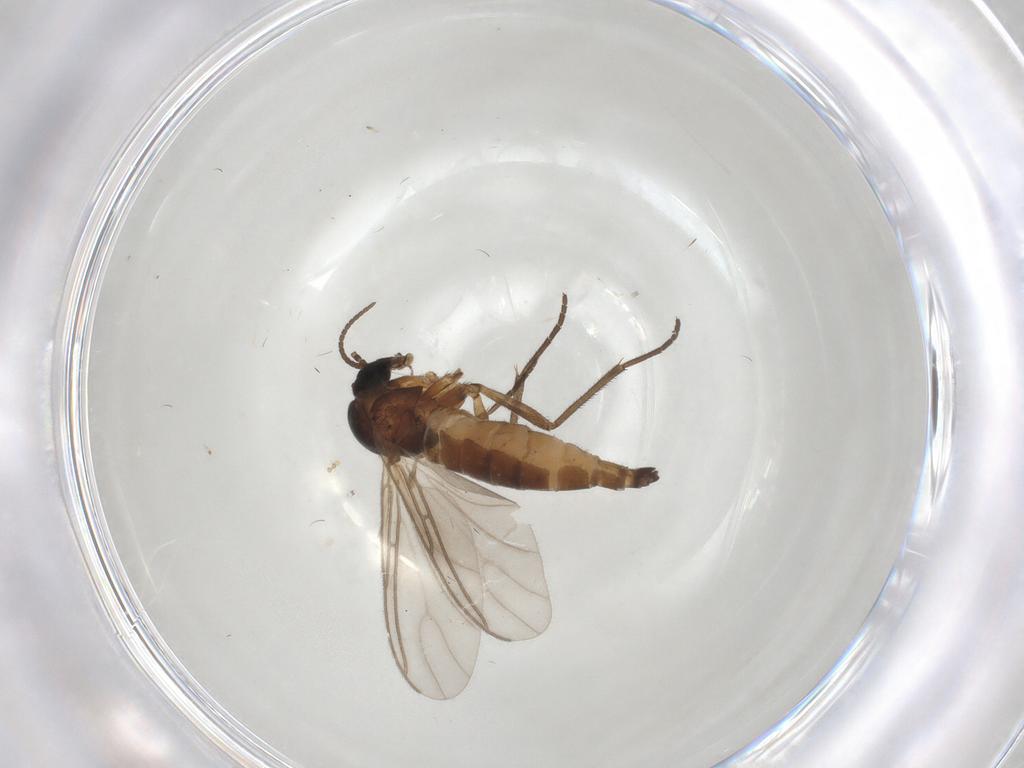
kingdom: Animalia
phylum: Arthropoda
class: Insecta
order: Diptera
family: Sciaridae
